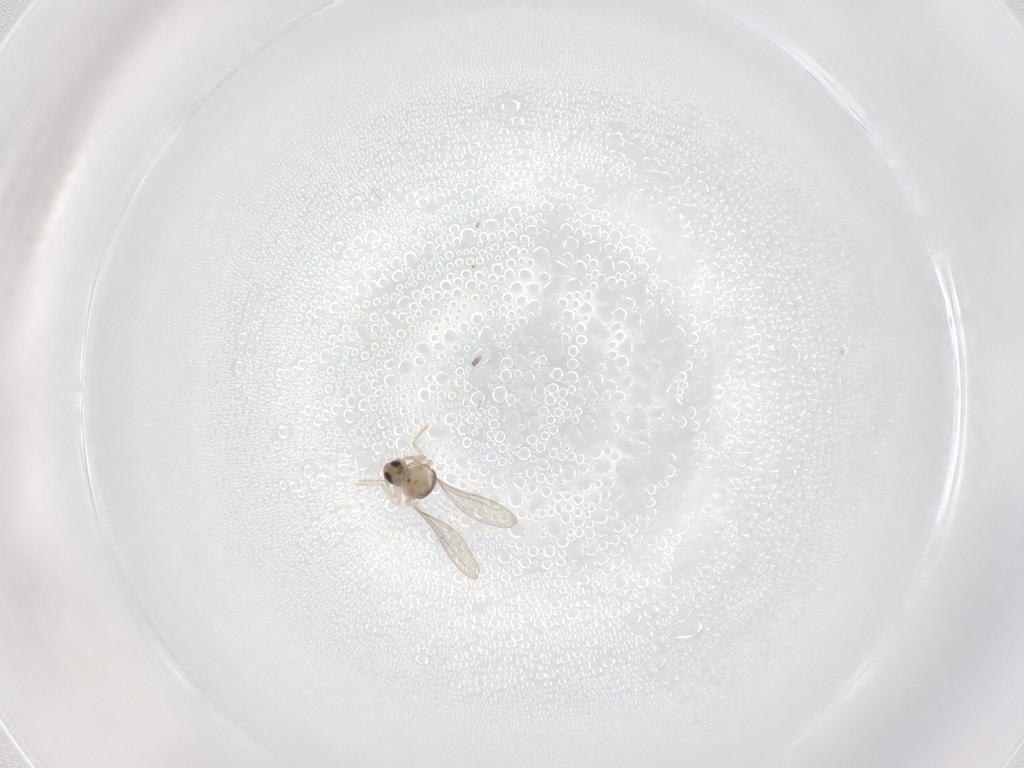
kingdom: Animalia
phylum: Arthropoda
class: Insecta
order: Diptera
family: Cecidomyiidae
